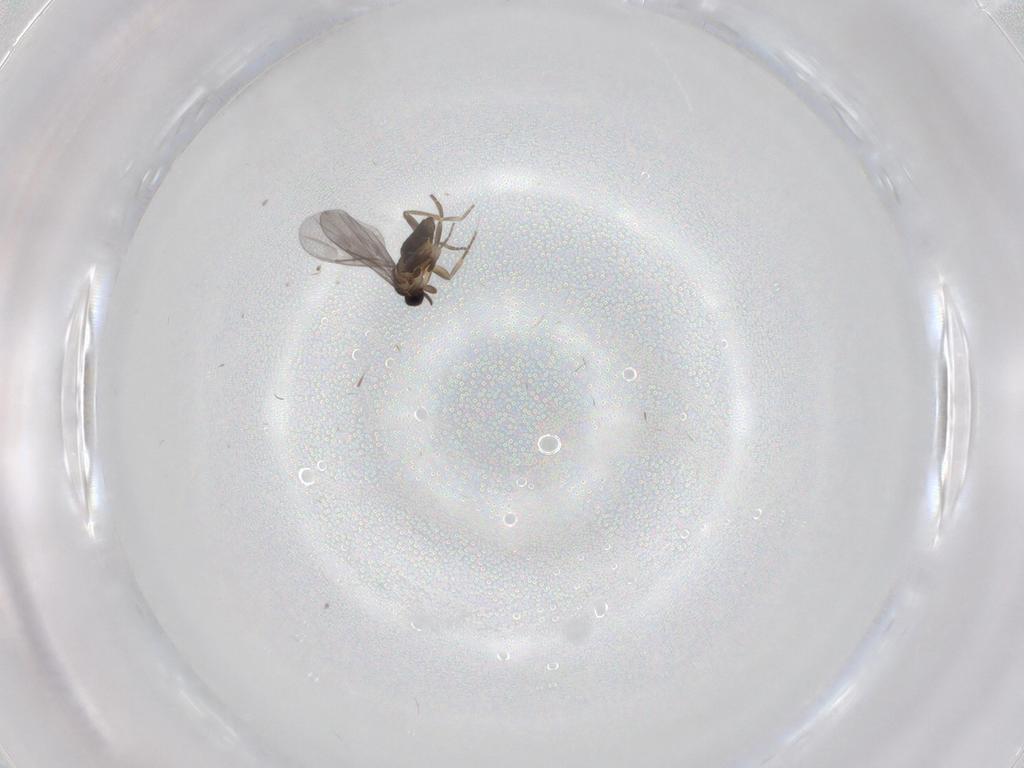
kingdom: Animalia
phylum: Arthropoda
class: Insecta
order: Diptera
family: Cecidomyiidae
